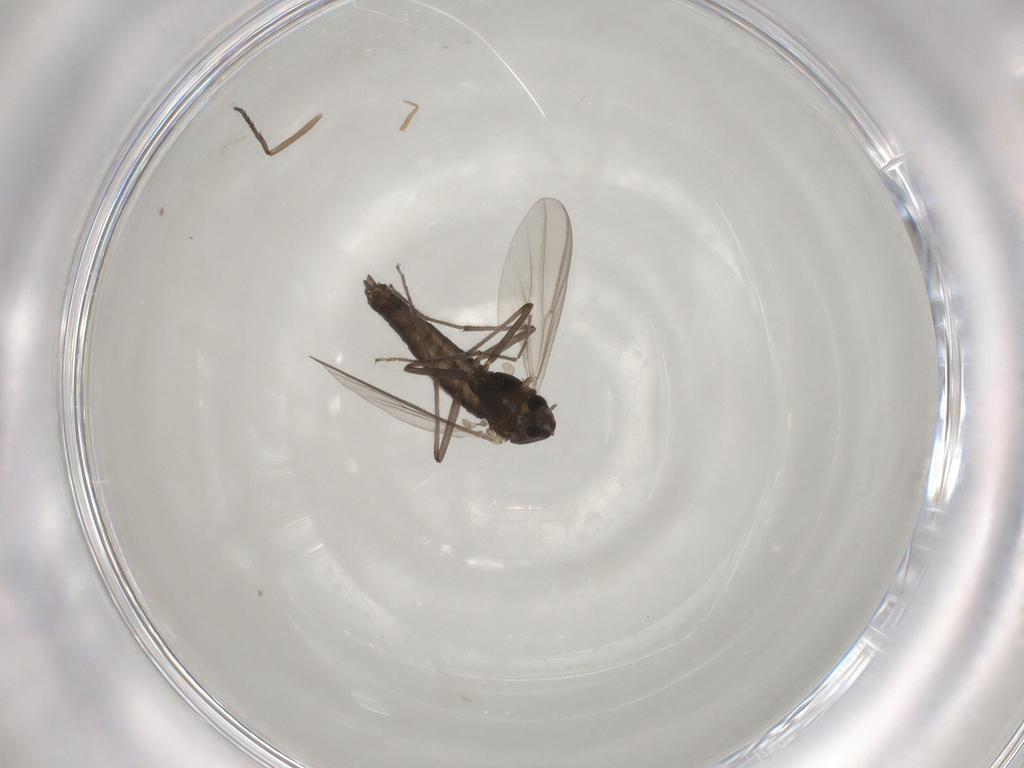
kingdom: Animalia
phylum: Arthropoda
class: Insecta
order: Diptera
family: Chironomidae
